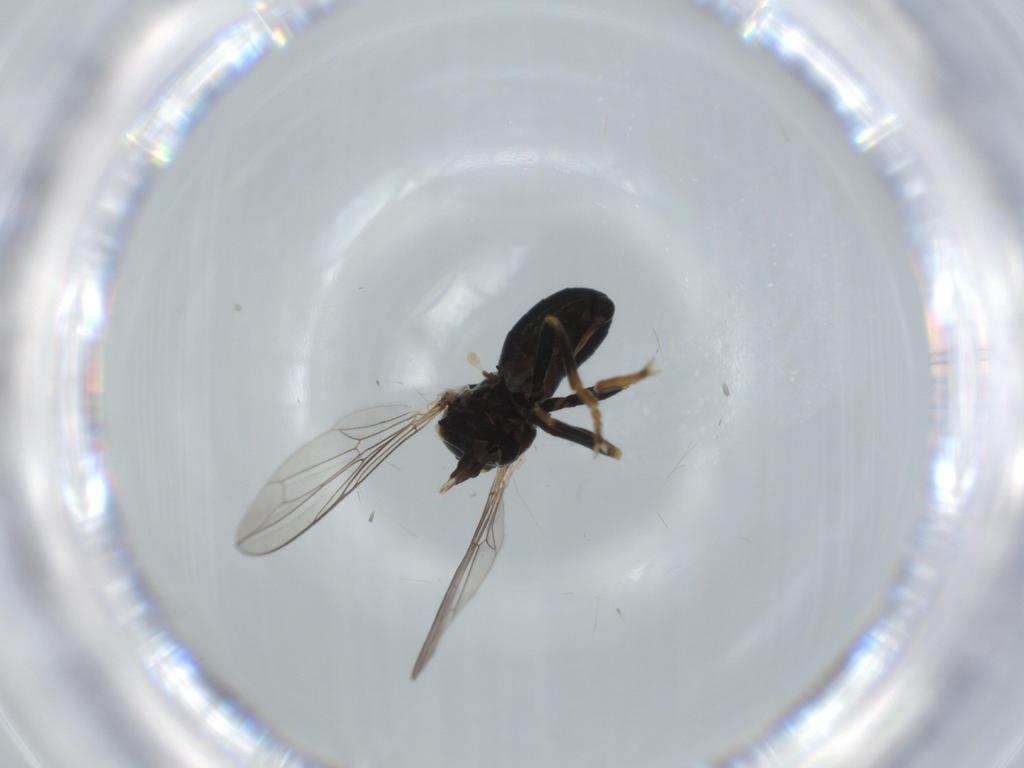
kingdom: Animalia
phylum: Arthropoda
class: Insecta
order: Diptera
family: Pipunculidae
